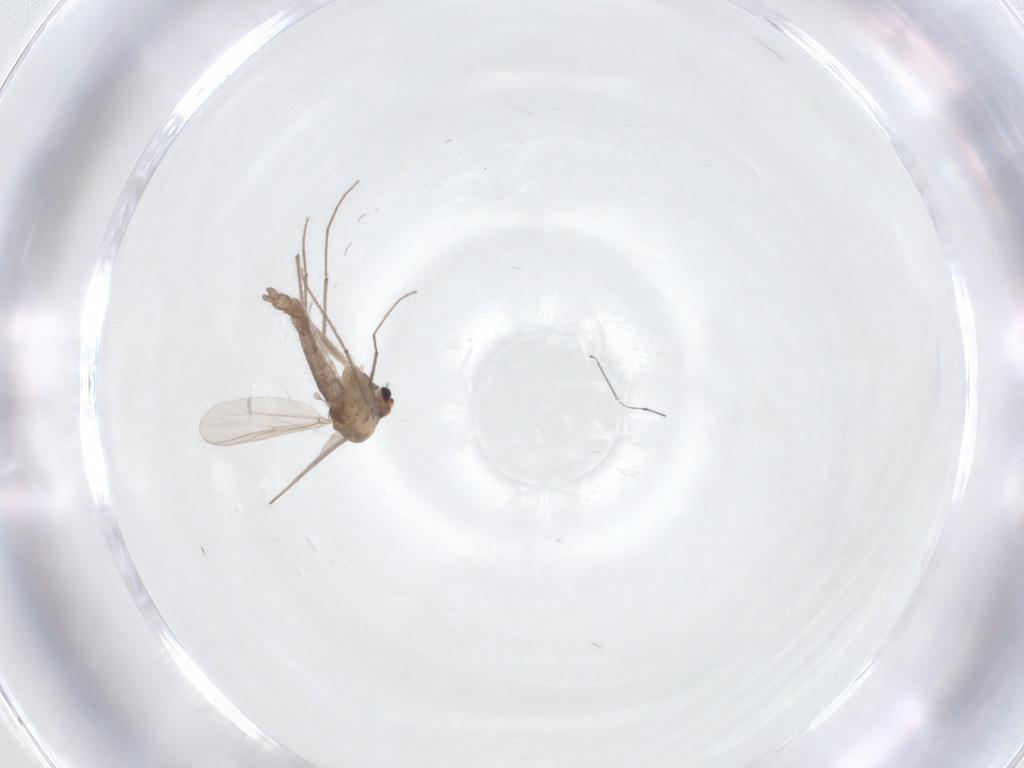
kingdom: Animalia
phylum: Arthropoda
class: Insecta
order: Diptera
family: Chironomidae
